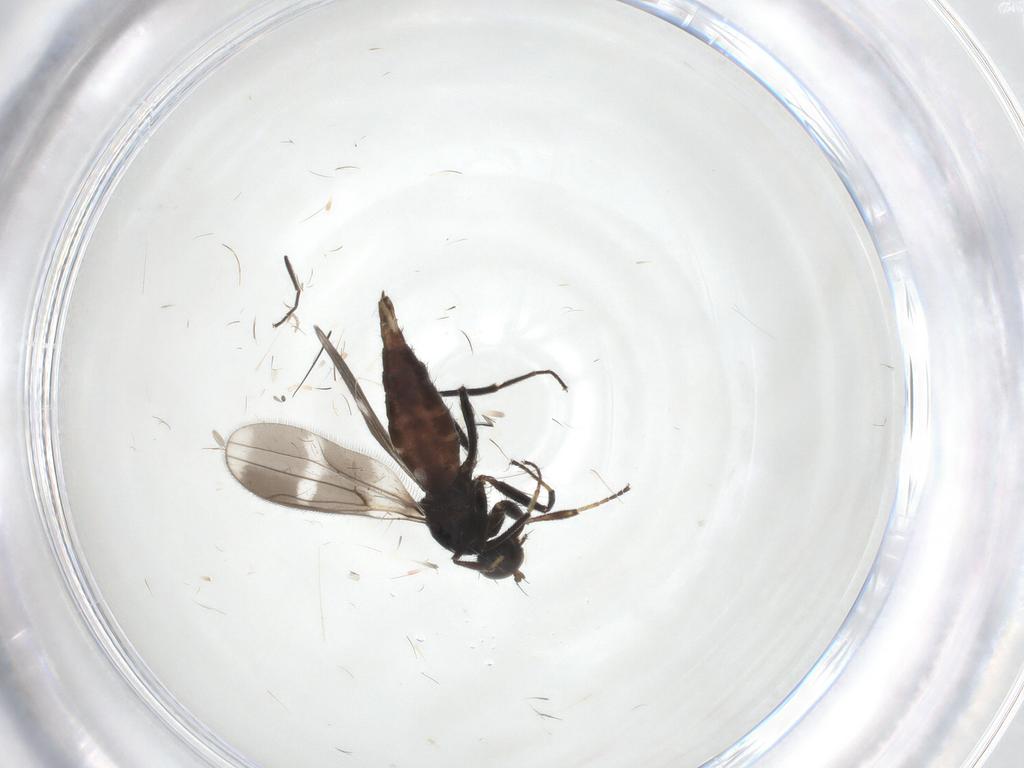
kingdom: Animalia
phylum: Arthropoda
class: Insecta
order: Diptera
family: Hybotidae
